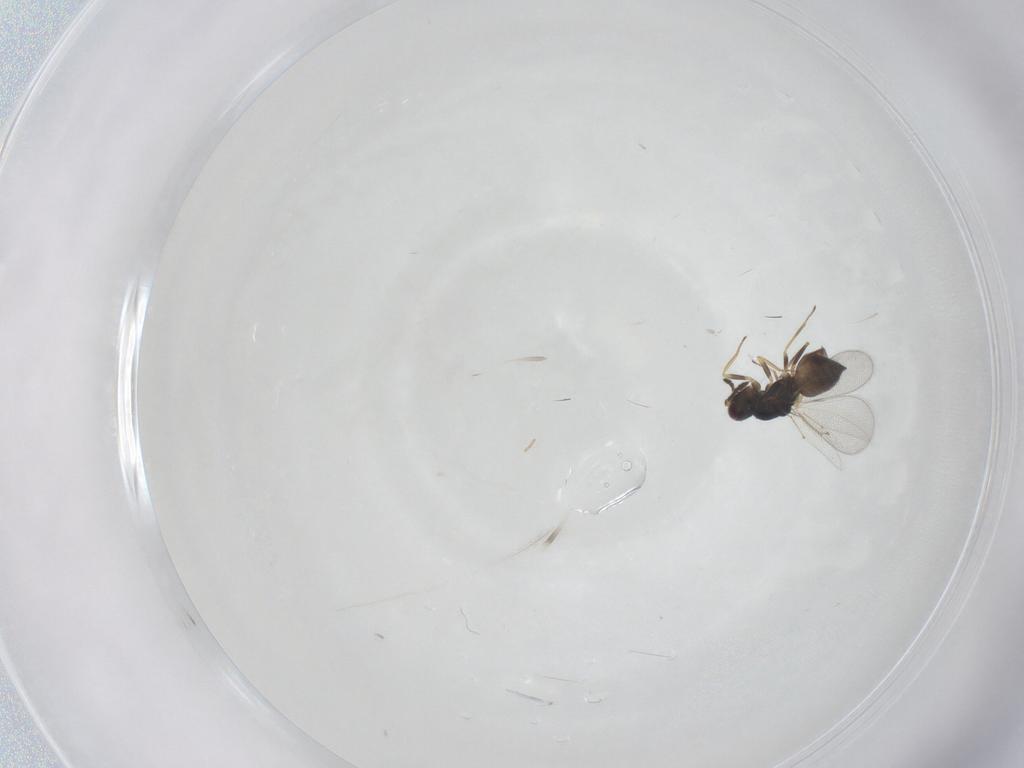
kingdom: Animalia
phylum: Arthropoda
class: Insecta
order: Hymenoptera
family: Eulophidae
